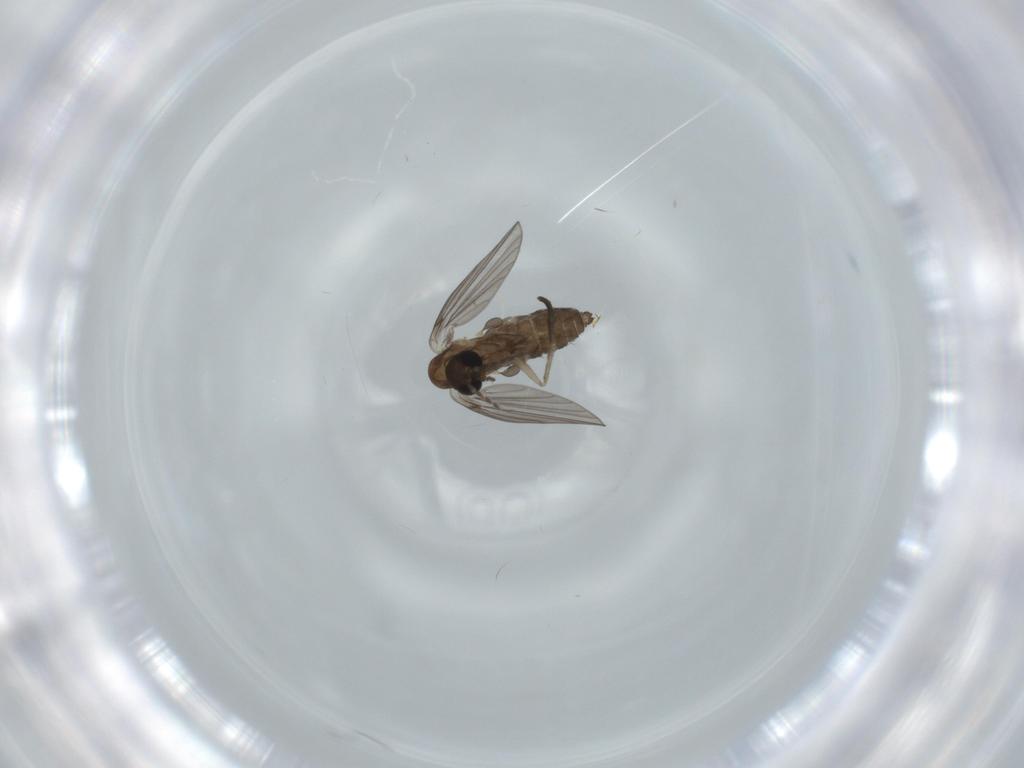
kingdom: Animalia
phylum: Arthropoda
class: Insecta
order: Diptera
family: Psychodidae
